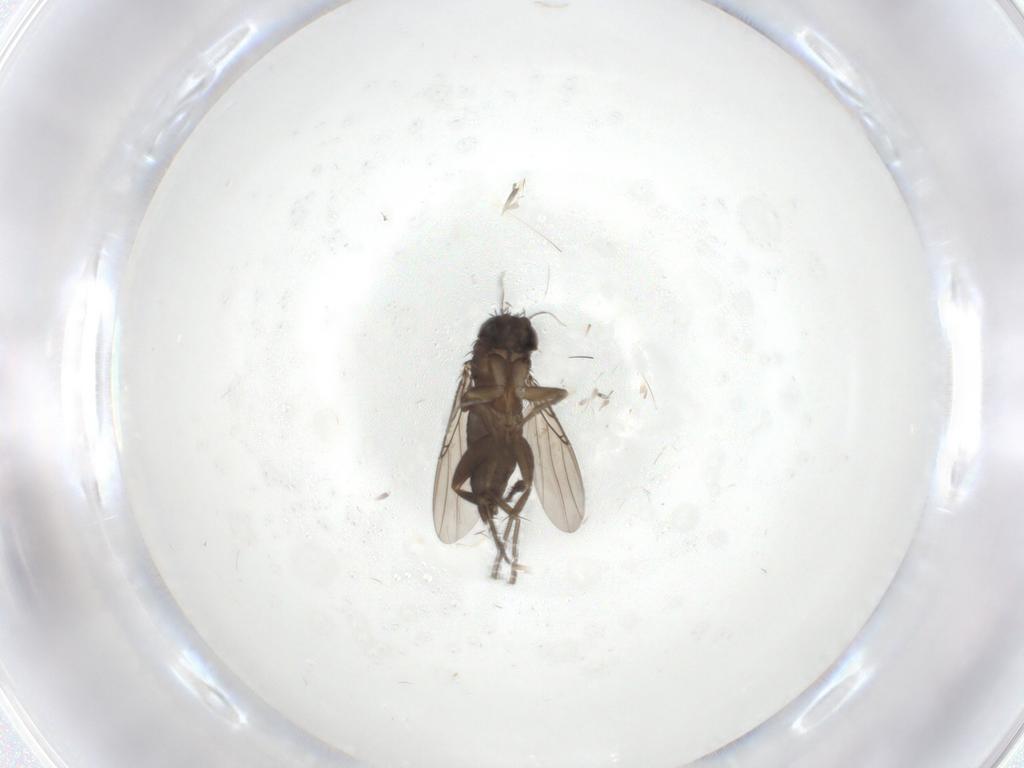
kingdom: Animalia
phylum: Arthropoda
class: Insecta
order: Diptera
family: Phoridae
